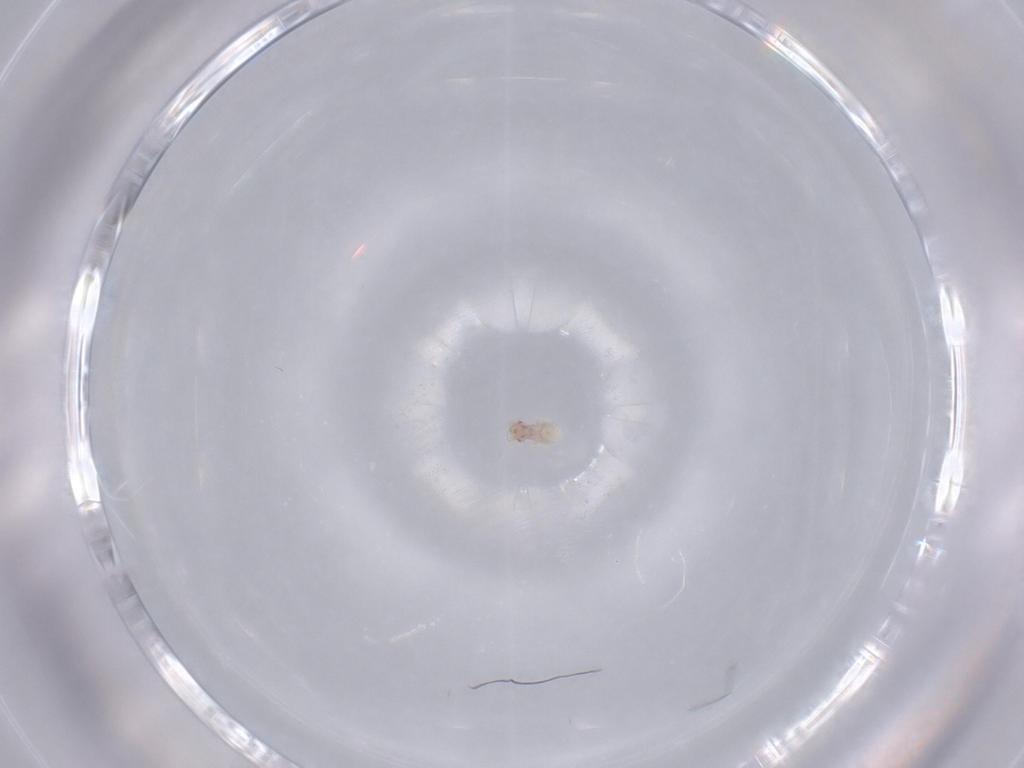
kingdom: Animalia
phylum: Arthropoda
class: Insecta
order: Psocodea
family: Liposcelididae
